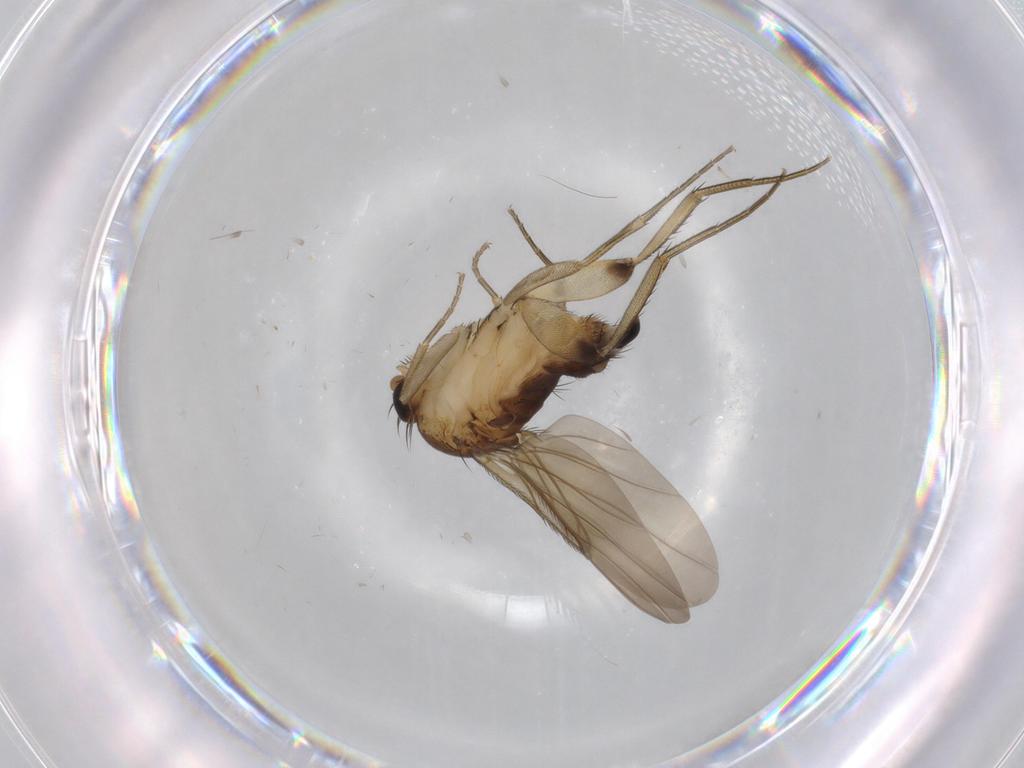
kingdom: Animalia
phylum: Arthropoda
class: Insecta
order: Diptera
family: Phoridae
